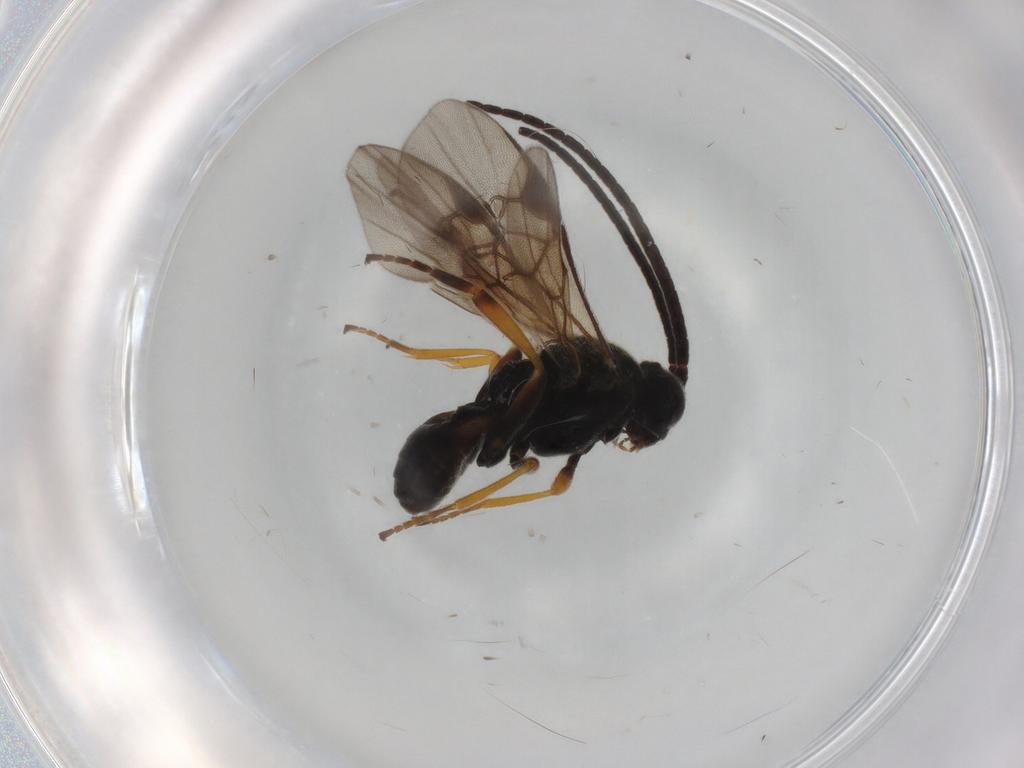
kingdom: Animalia
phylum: Arthropoda
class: Insecta
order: Hymenoptera
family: Braconidae
